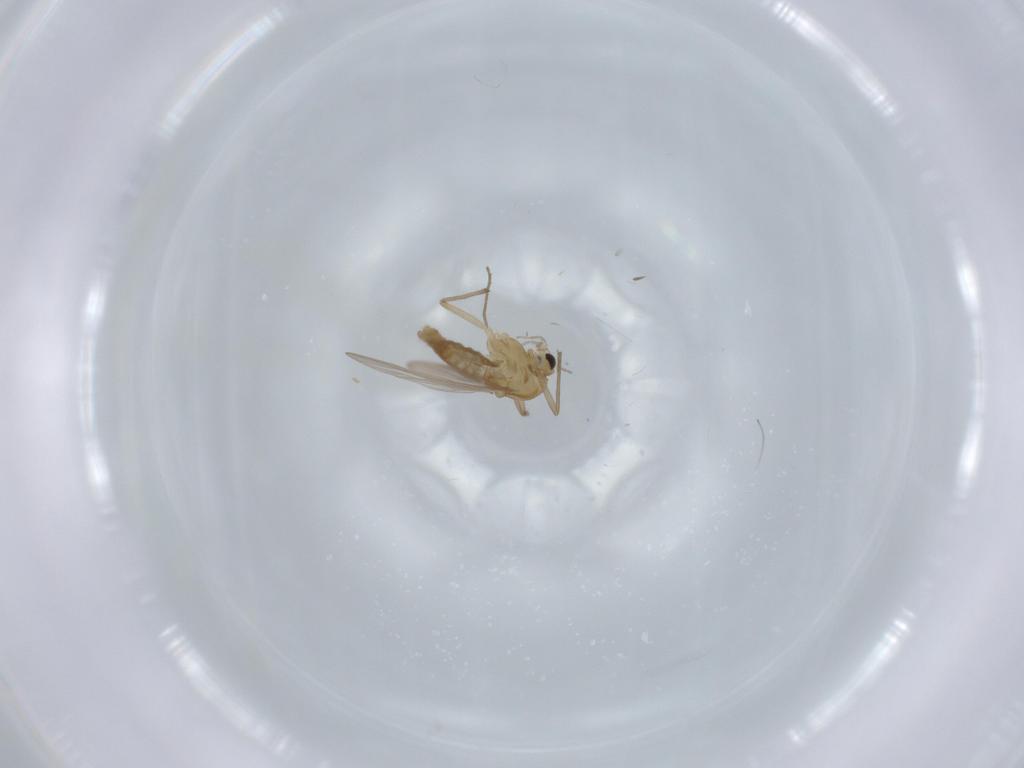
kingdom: Animalia
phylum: Arthropoda
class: Insecta
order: Diptera
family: Chironomidae
